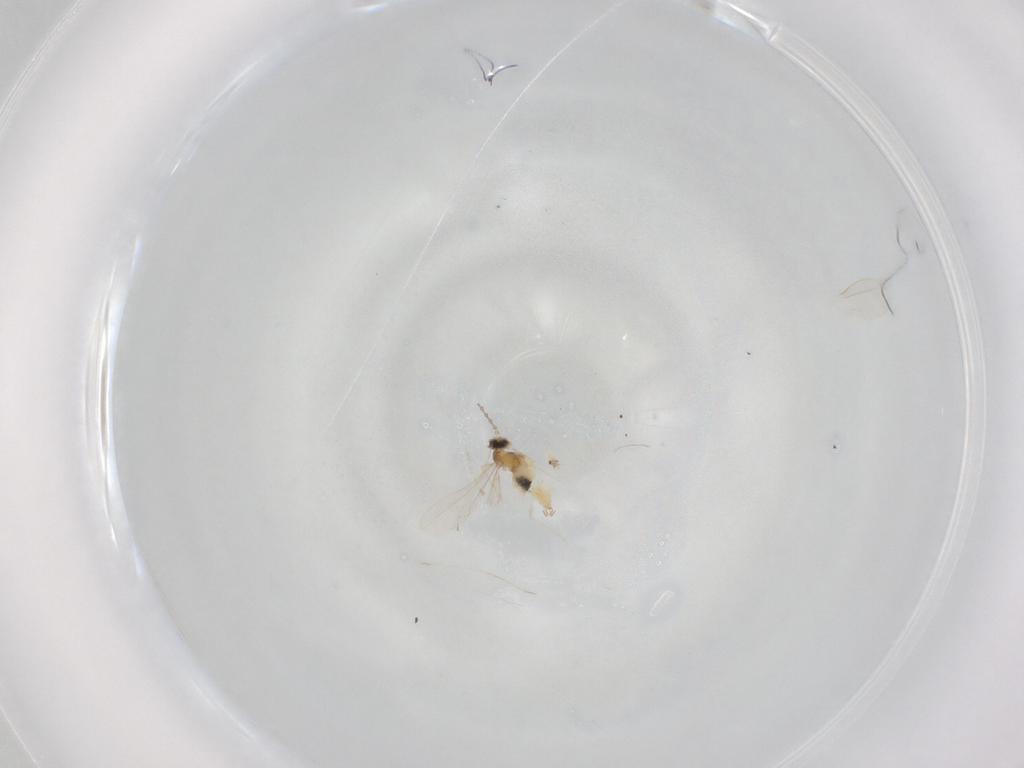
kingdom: Animalia
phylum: Arthropoda
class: Insecta
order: Diptera
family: Cecidomyiidae
